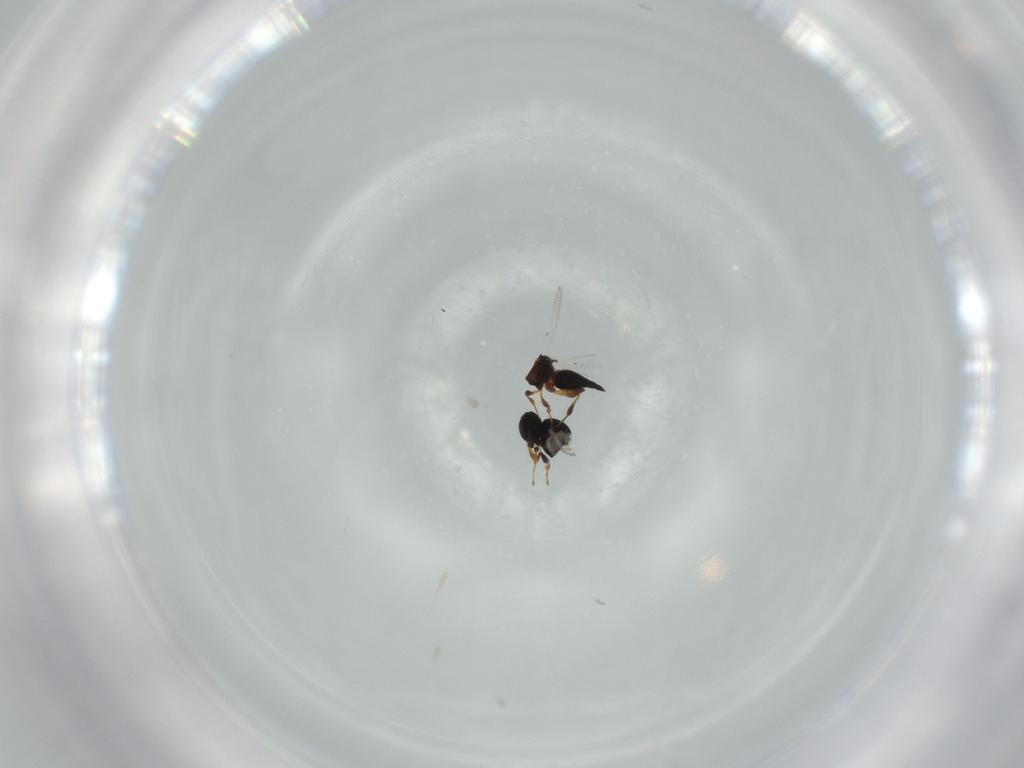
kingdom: Animalia
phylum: Arthropoda
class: Insecta
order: Hymenoptera
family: Platygastridae
